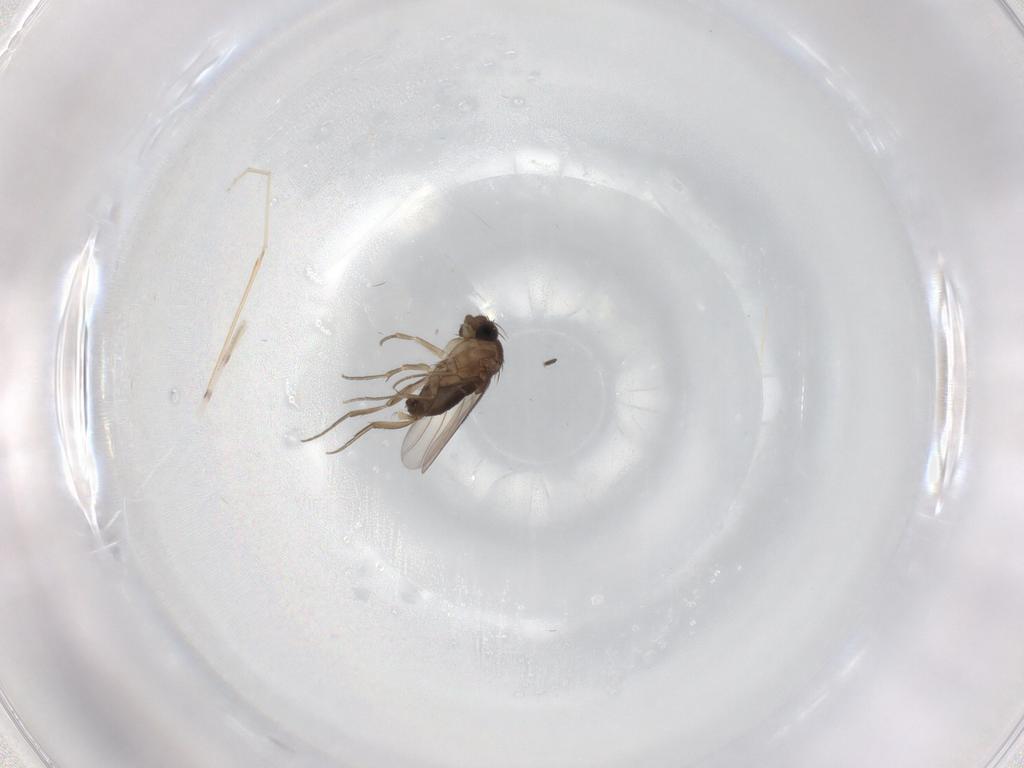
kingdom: Animalia
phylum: Arthropoda
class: Insecta
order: Diptera
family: Phoridae
